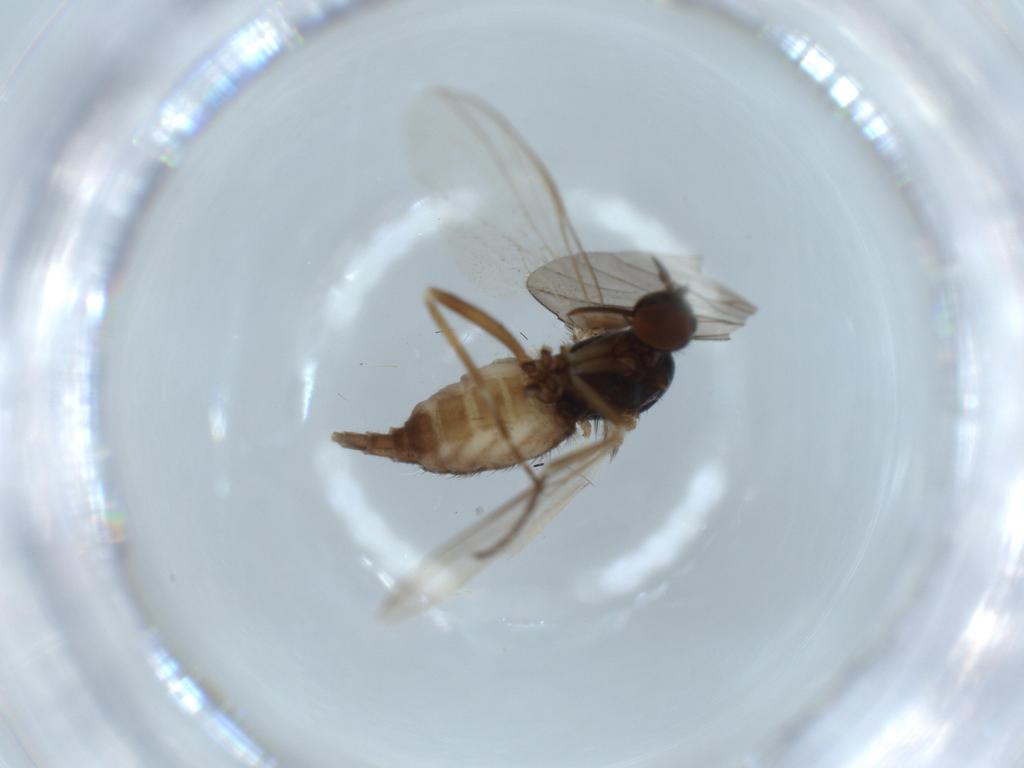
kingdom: Animalia
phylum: Arthropoda
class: Insecta
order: Diptera
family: Empididae
